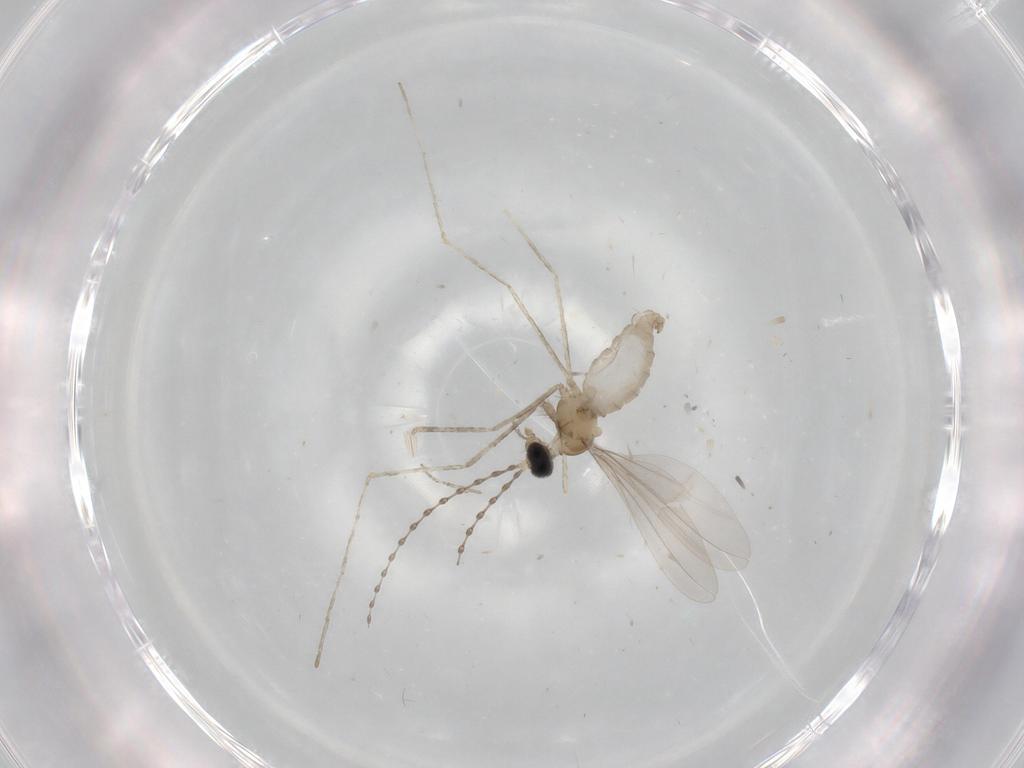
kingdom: Animalia
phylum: Arthropoda
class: Insecta
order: Diptera
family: Cecidomyiidae
